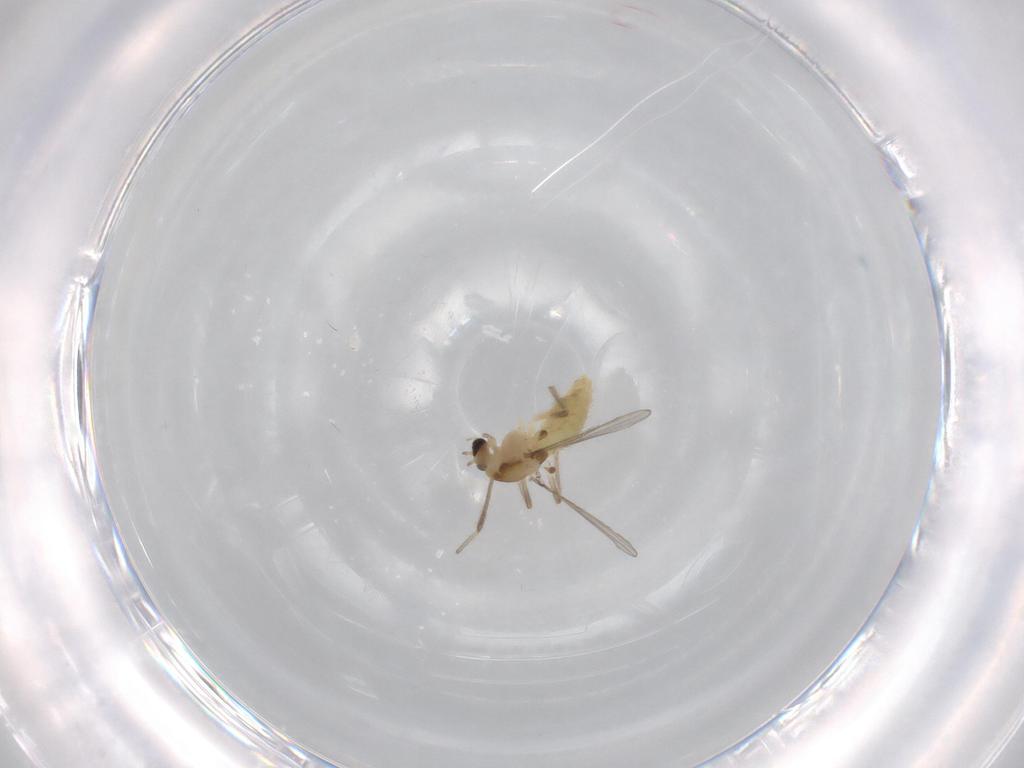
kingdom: Animalia
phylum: Arthropoda
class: Insecta
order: Diptera
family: Chironomidae
